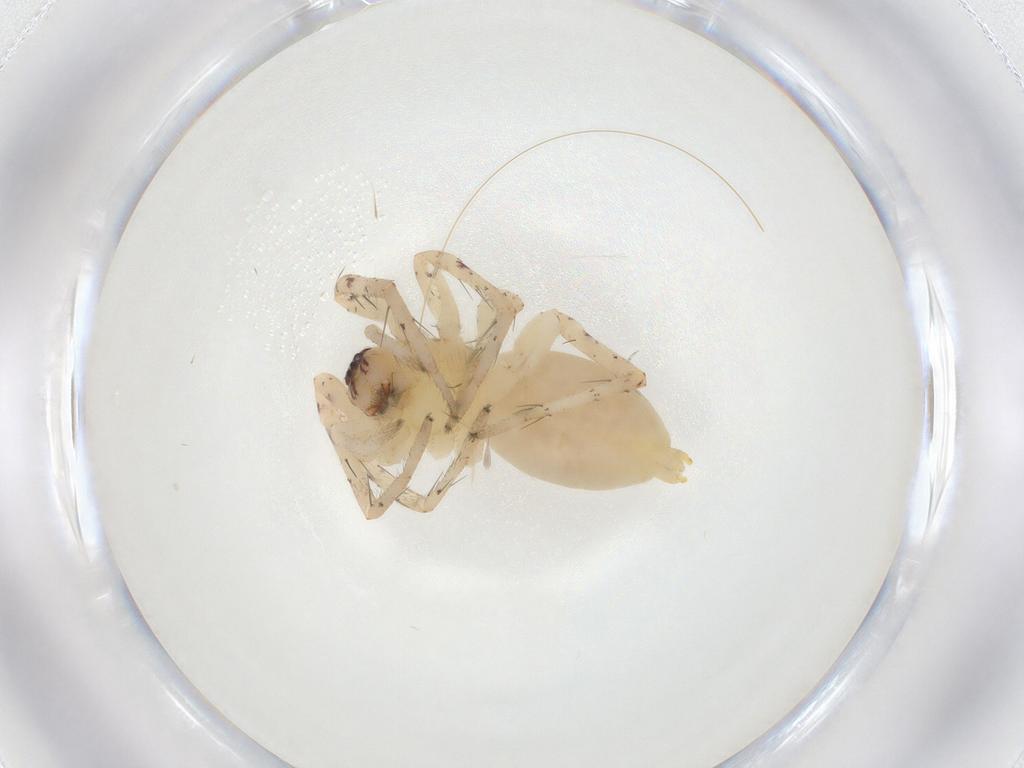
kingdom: Animalia
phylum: Arthropoda
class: Arachnida
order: Araneae
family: Anyphaenidae
